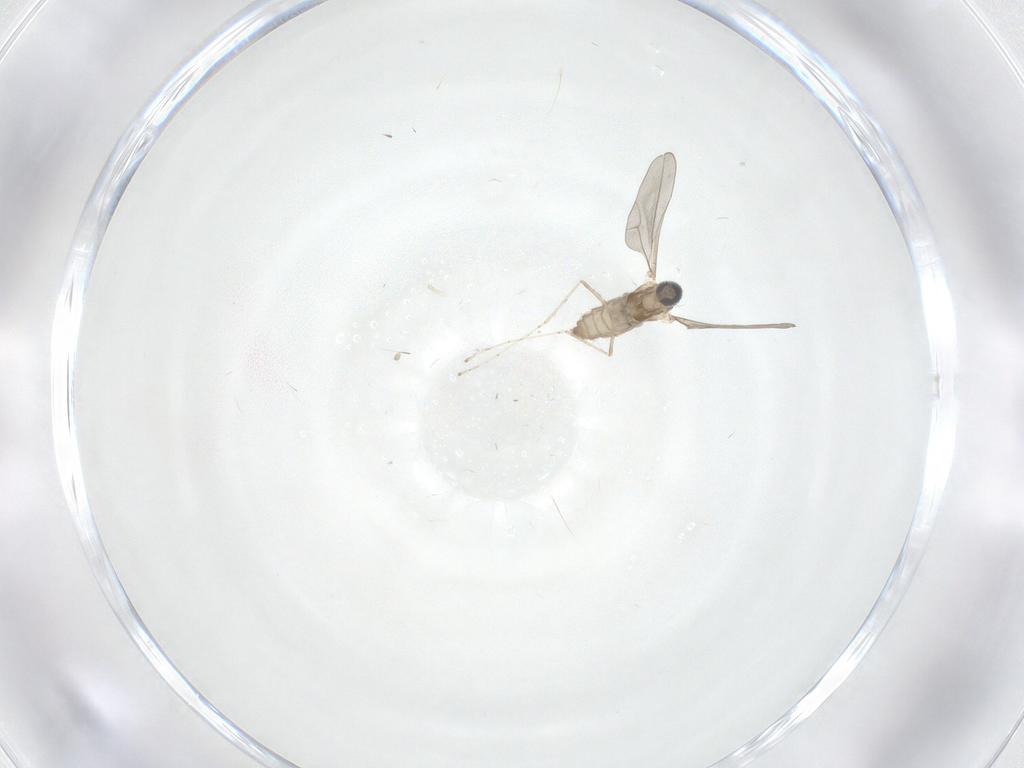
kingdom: Animalia
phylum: Arthropoda
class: Insecta
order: Diptera
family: Cecidomyiidae
